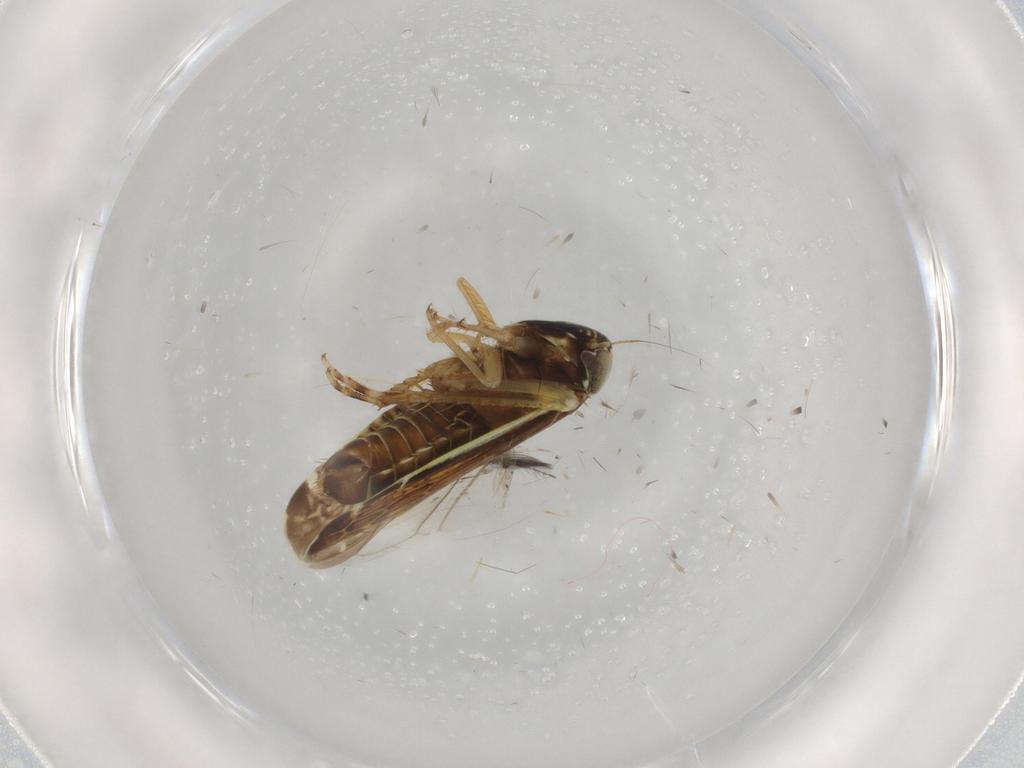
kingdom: Animalia
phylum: Arthropoda
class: Insecta
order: Hemiptera
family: Cicadellidae
